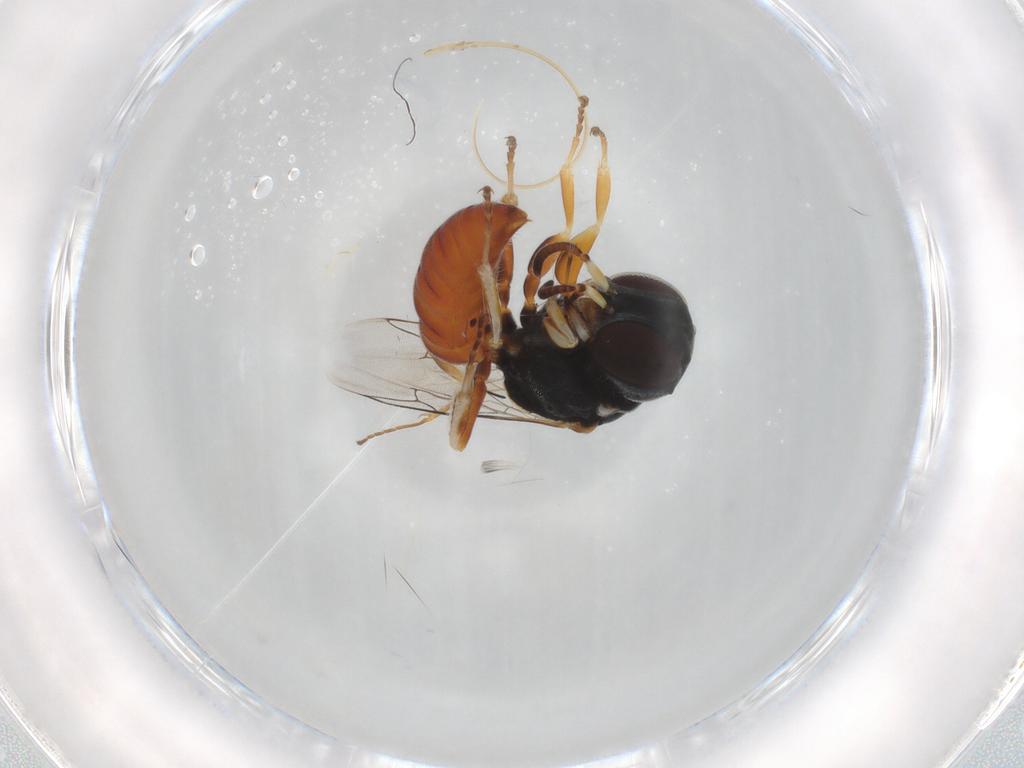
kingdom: Animalia
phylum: Arthropoda
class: Insecta
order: Hymenoptera
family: Crabronidae
